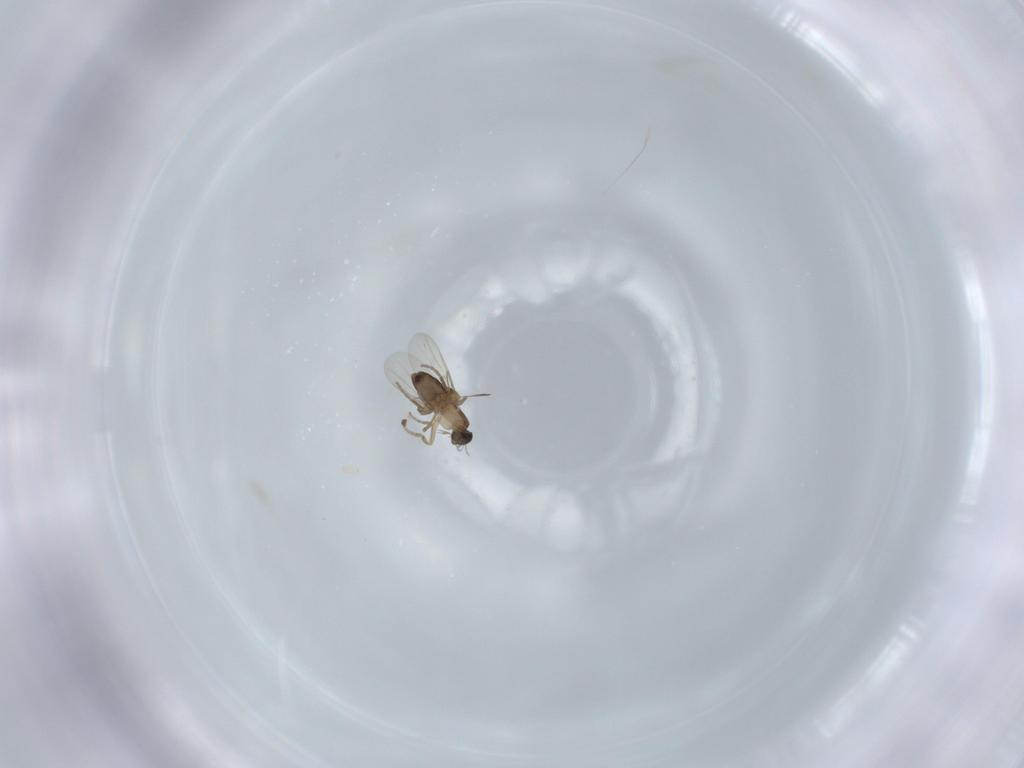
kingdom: Animalia
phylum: Arthropoda
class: Insecta
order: Diptera
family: Phoridae
